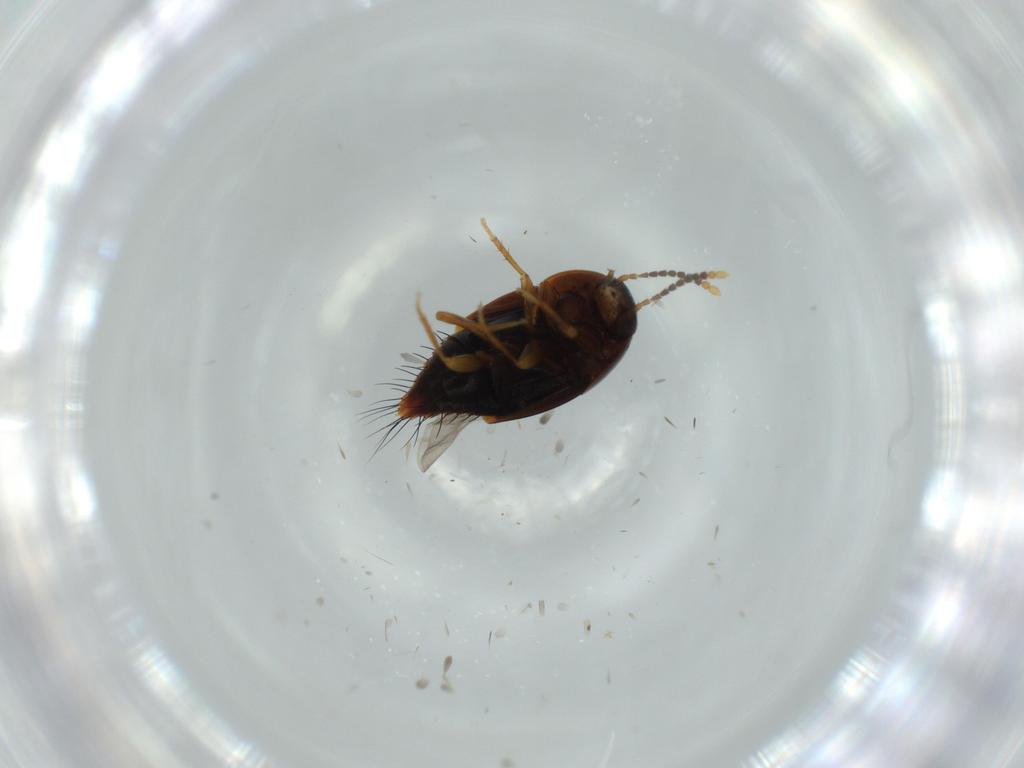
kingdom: Animalia
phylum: Arthropoda
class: Insecta
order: Coleoptera
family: Staphylinidae
